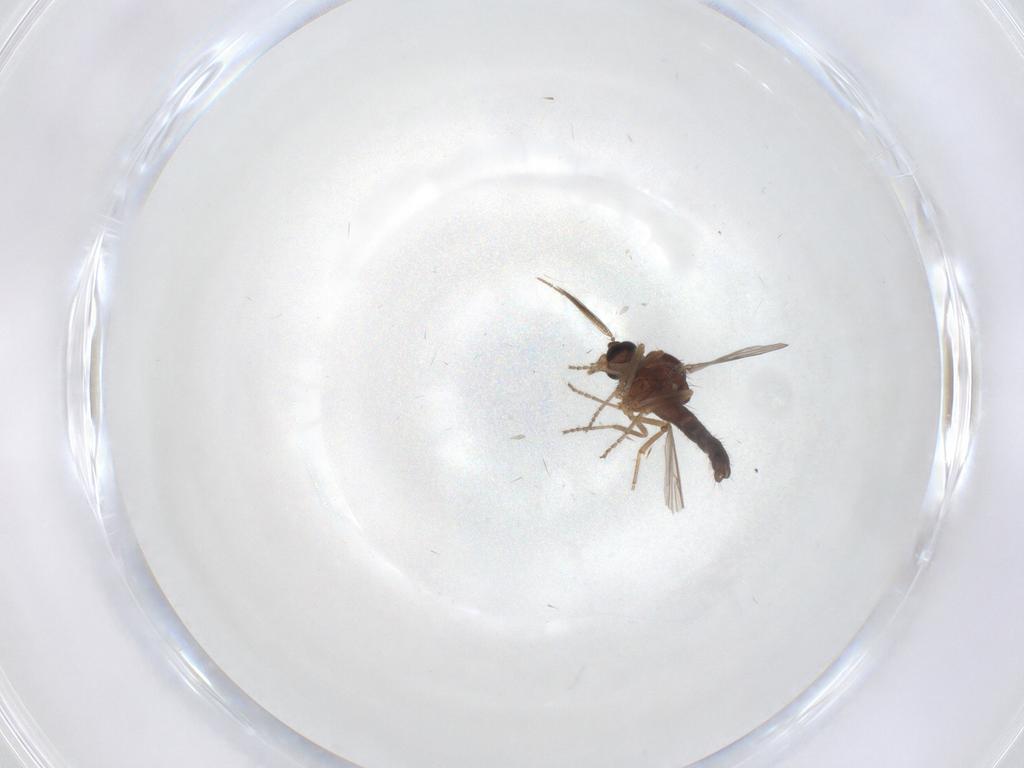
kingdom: Animalia
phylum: Arthropoda
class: Insecta
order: Diptera
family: Ceratopogonidae
